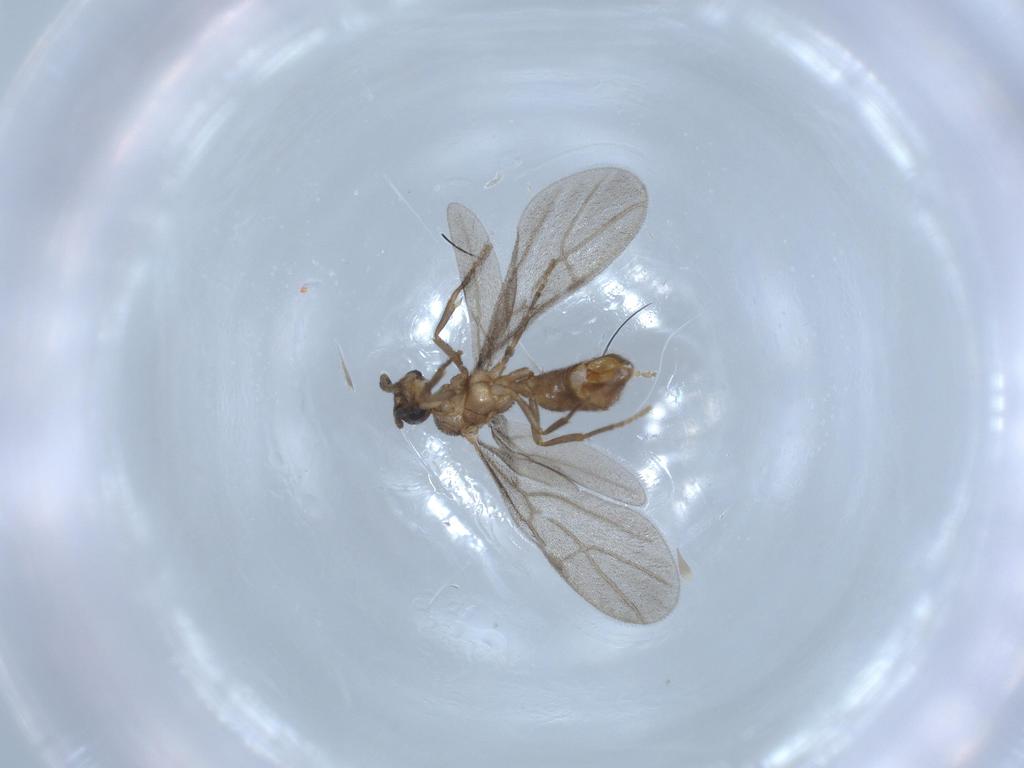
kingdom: Animalia
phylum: Arthropoda
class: Insecta
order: Hymenoptera
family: Formicidae
